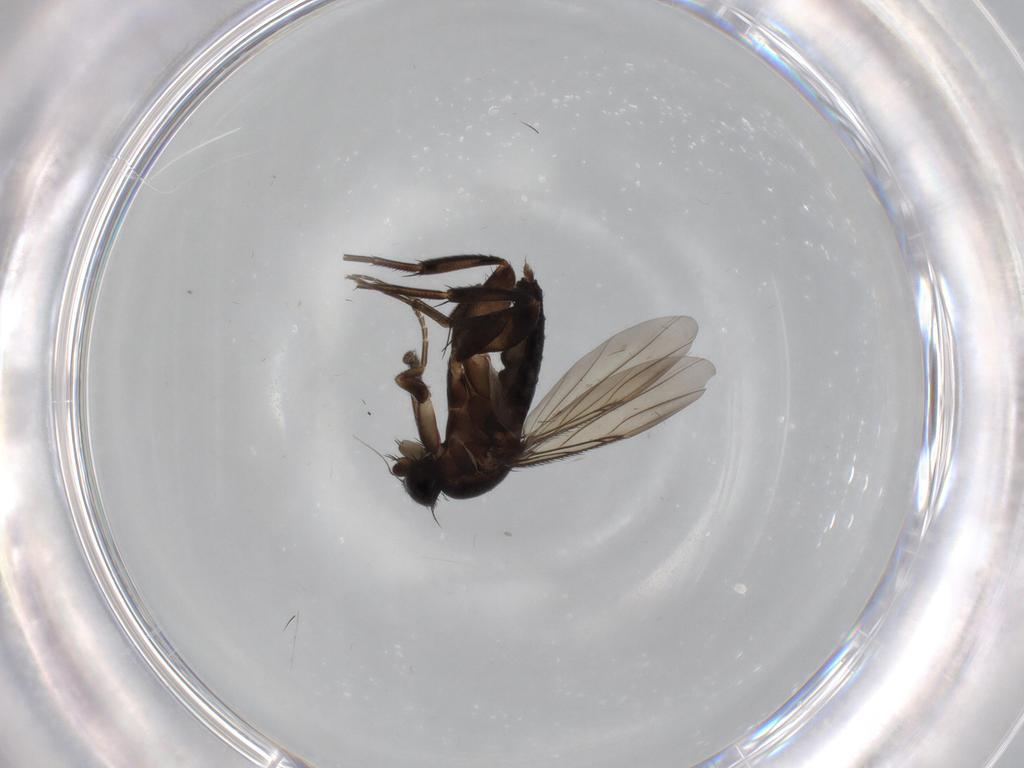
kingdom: Animalia
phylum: Arthropoda
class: Insecta
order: Diptera
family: Phoridae
